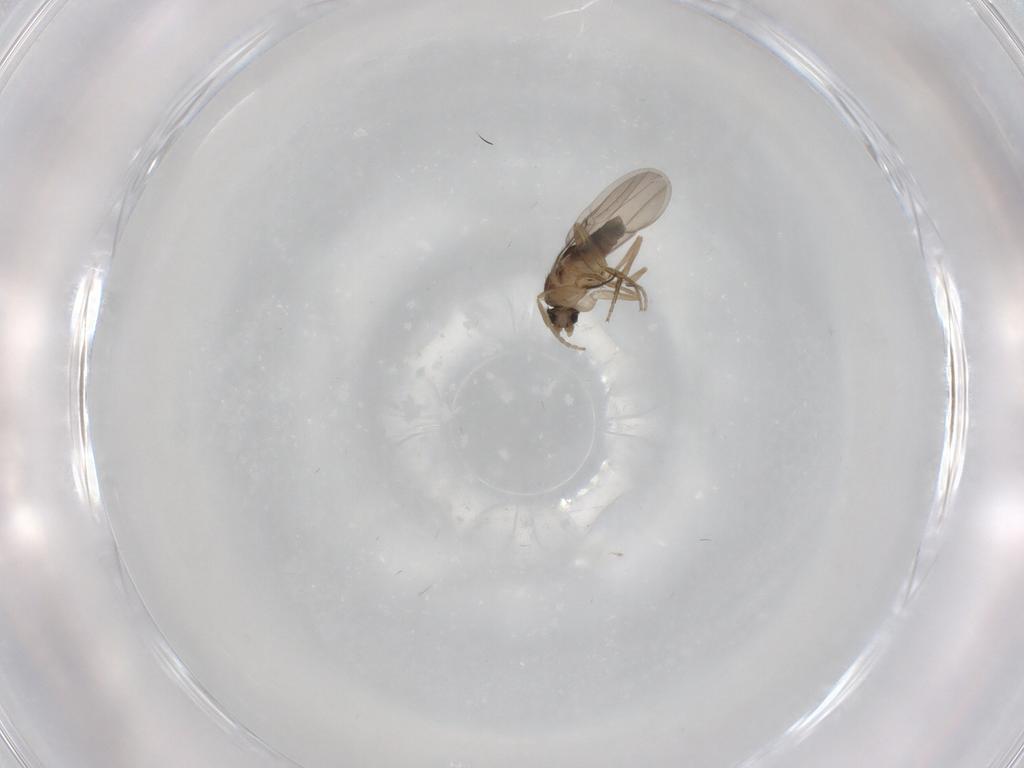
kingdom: Animalia
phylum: Arthropoda
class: Insecta
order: Diptera
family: Phoridae
